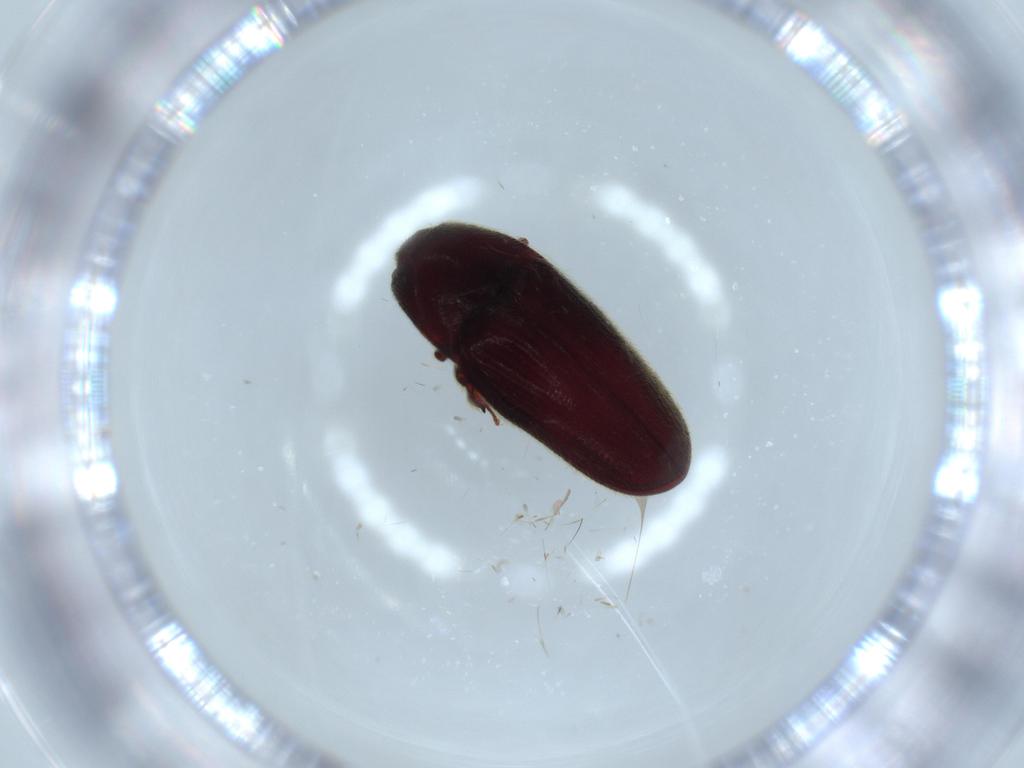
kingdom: Animalia
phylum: Arthropoda
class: Insecta
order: Coleoptera
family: Throscidae
